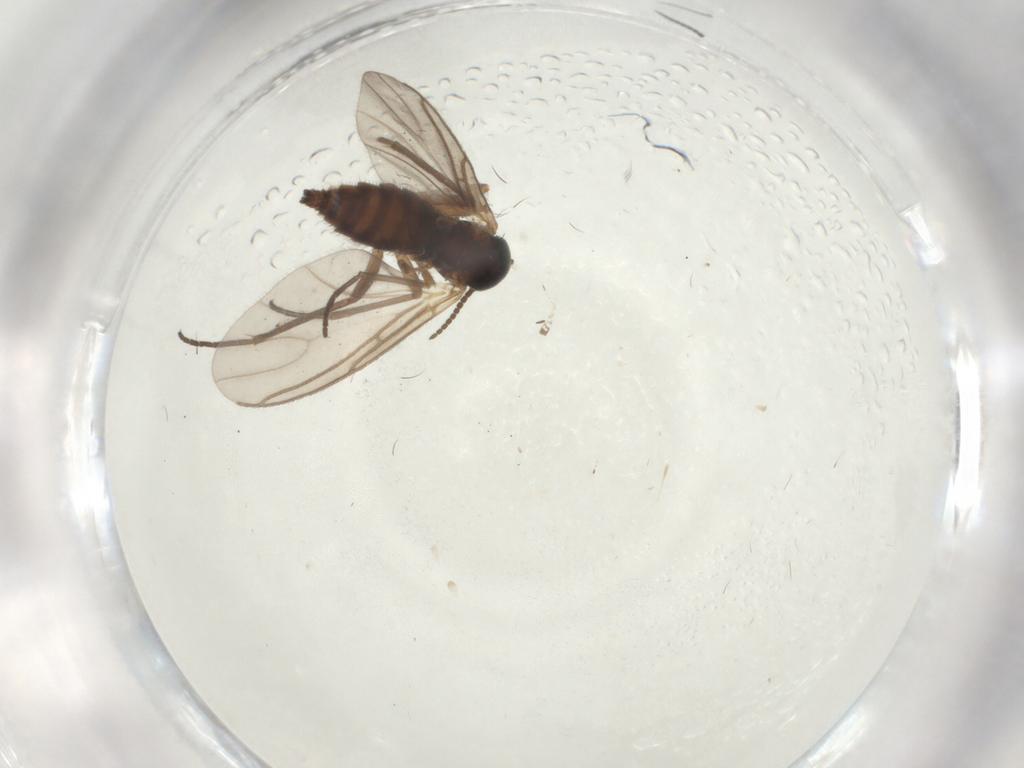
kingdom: Animalia
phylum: Arthropoda
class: Insecta
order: Diptera
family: Sciaridae
